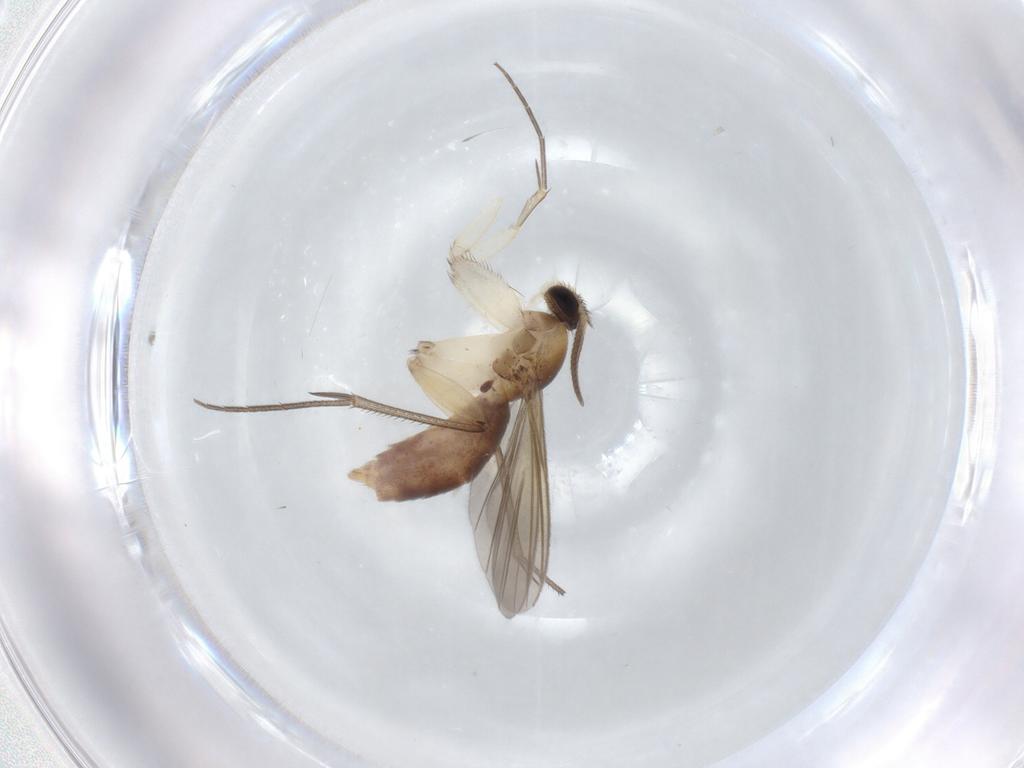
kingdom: Animalia
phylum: Arthropoda
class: Insecta
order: Diptera
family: Mycetophilidae
